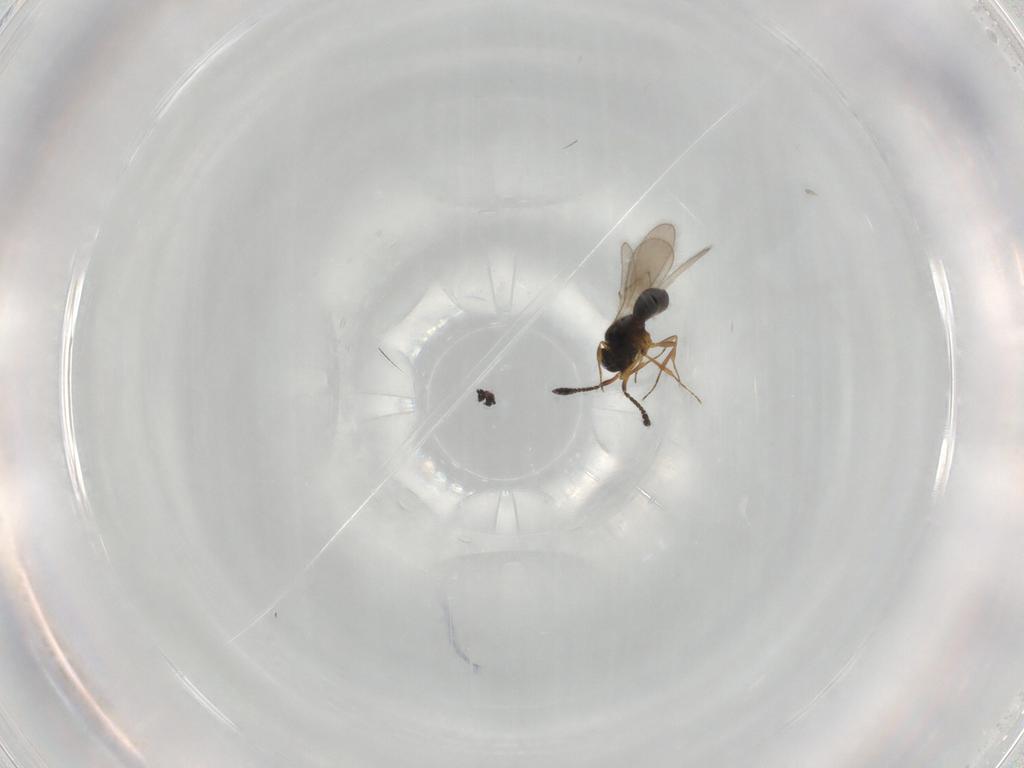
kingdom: Animalia
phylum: Arthropoda
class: Insecta
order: Hymenoptera
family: Scelionidae
